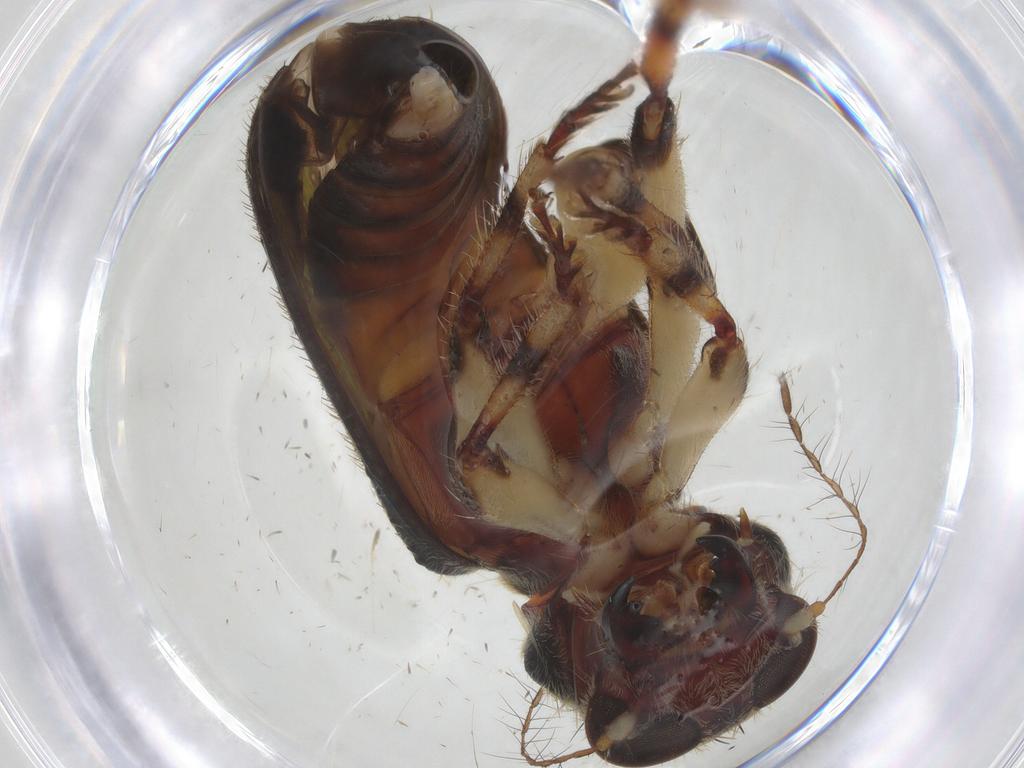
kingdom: Animalia
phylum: Arthropoda
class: Insecta
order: Coleoptera
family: Cleridae
